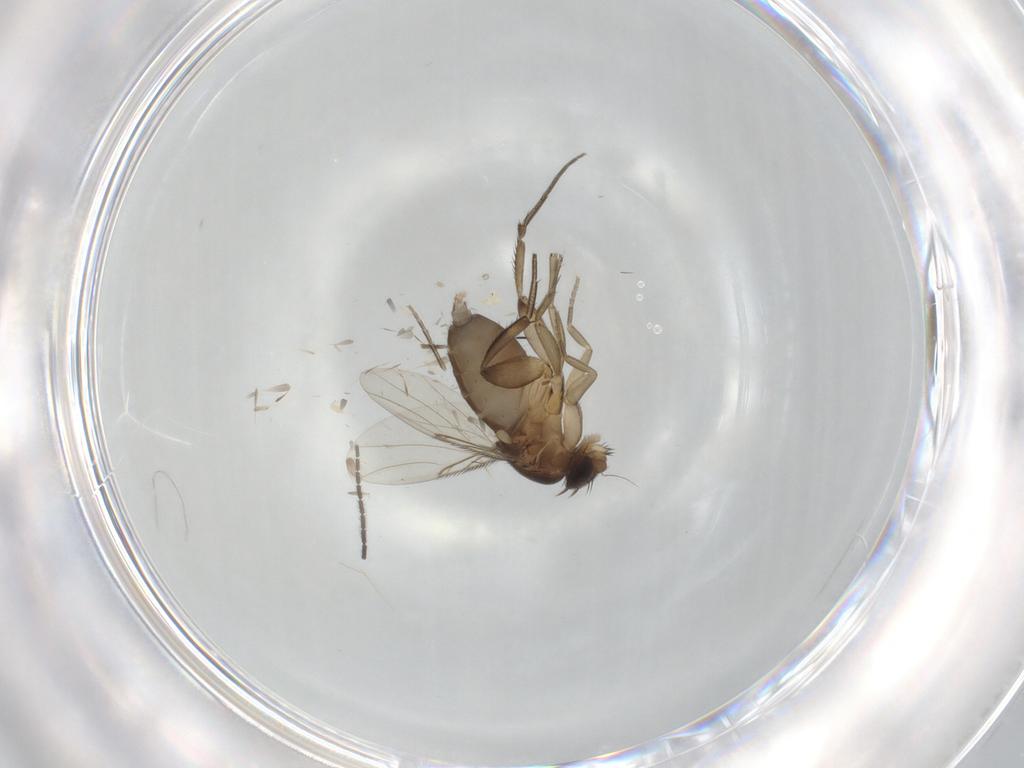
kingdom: Animalia
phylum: Arthropoda
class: Insecta
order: Diptera
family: Phoridae
